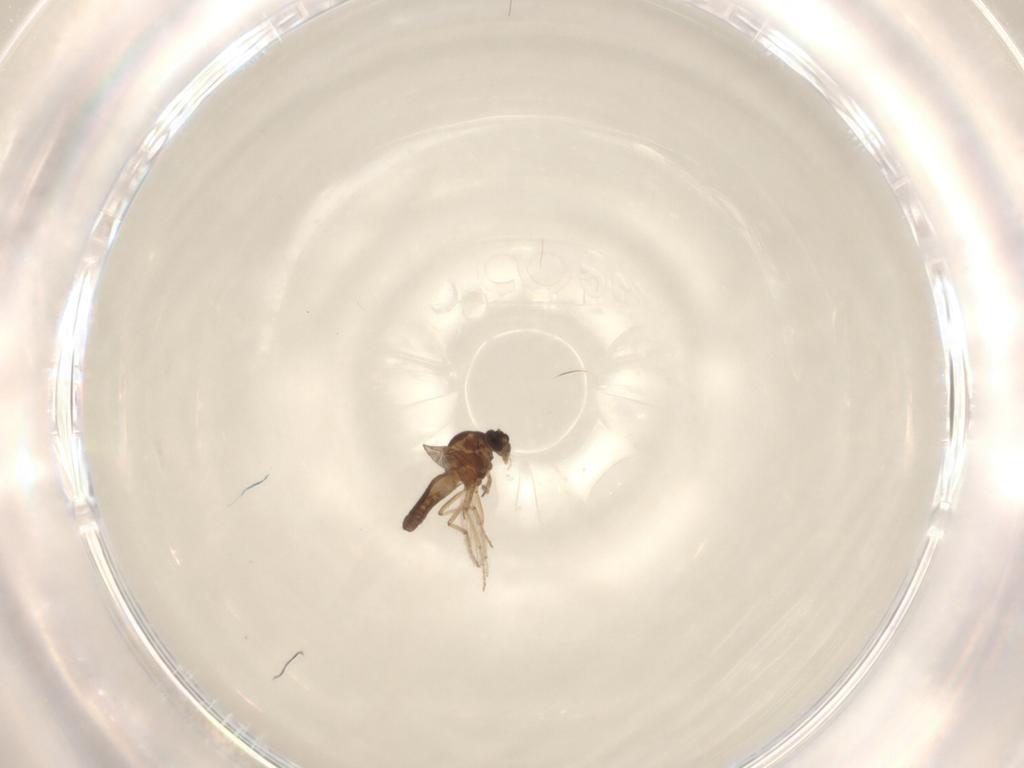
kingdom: Animalia
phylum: Arthropoda
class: Insecta
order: Diptera
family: Ceratopogonidae
